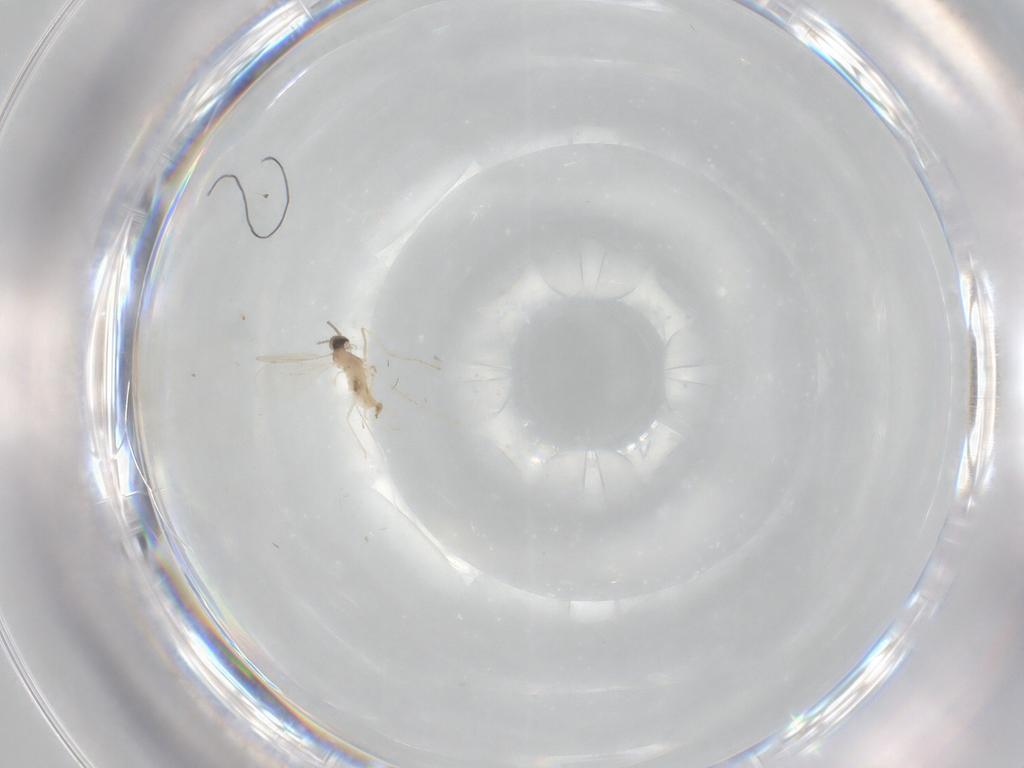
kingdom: Animalia
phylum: Arthropoda
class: Insecta
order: Diptera
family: Cecidomyiidae
